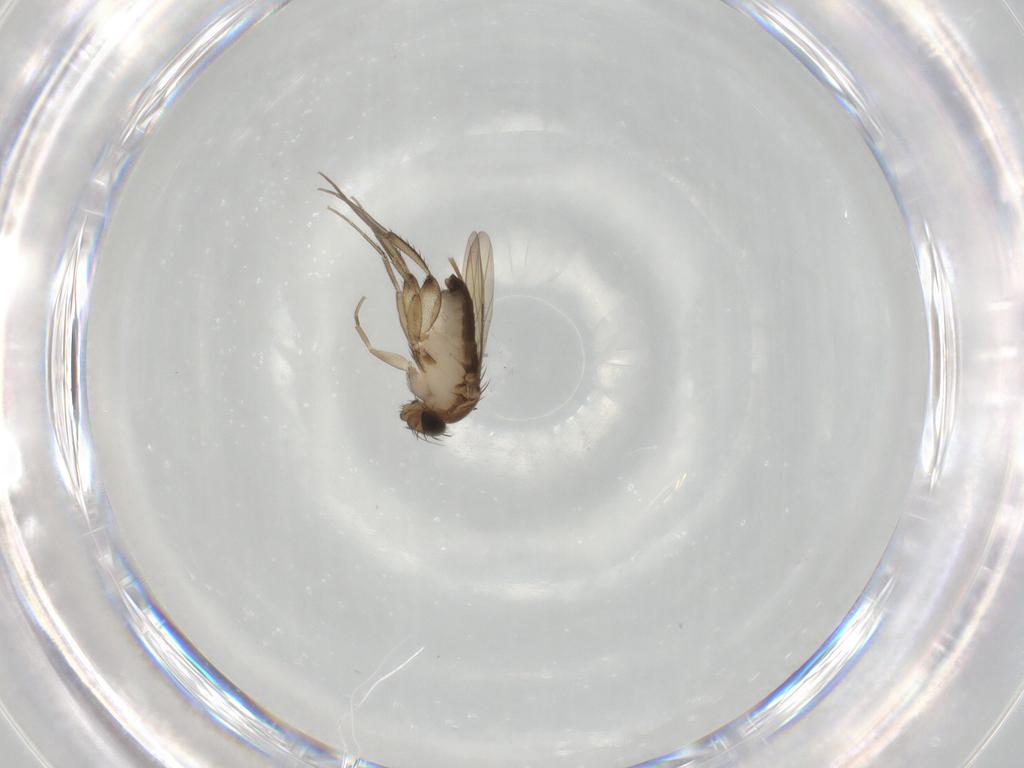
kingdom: Animalia
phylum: Arthropoda
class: Insecta
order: Diptera
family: Phoridae
